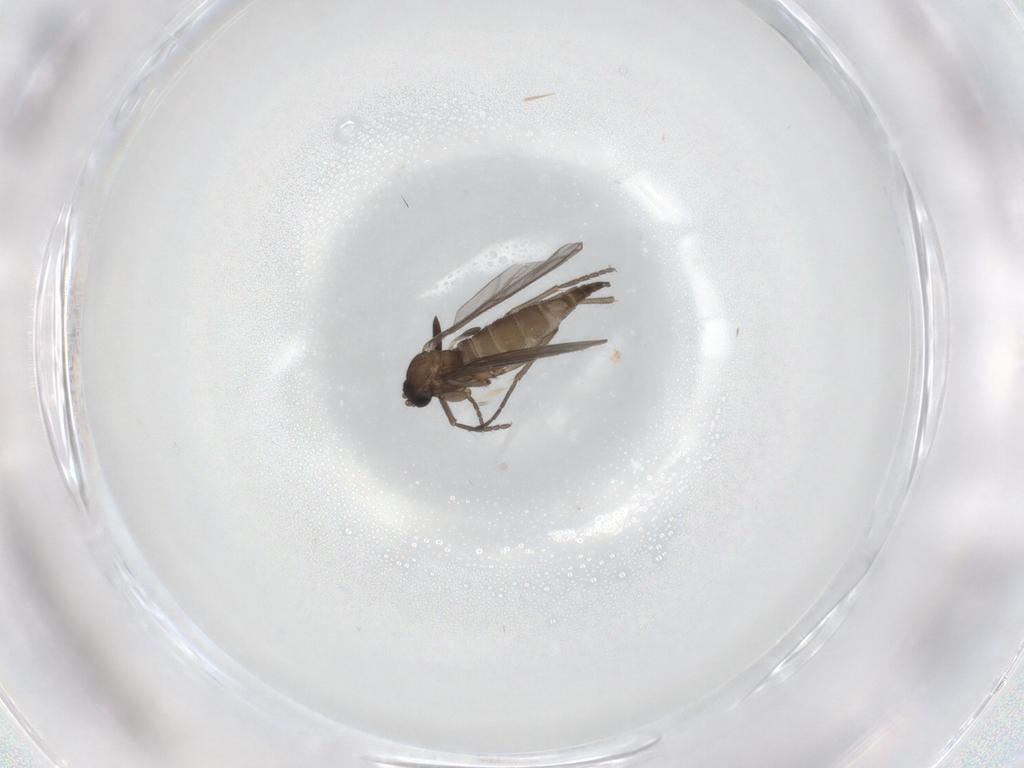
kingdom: Animalia
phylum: Arthropoda
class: Insecta
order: Diptera
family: Sciaridae
